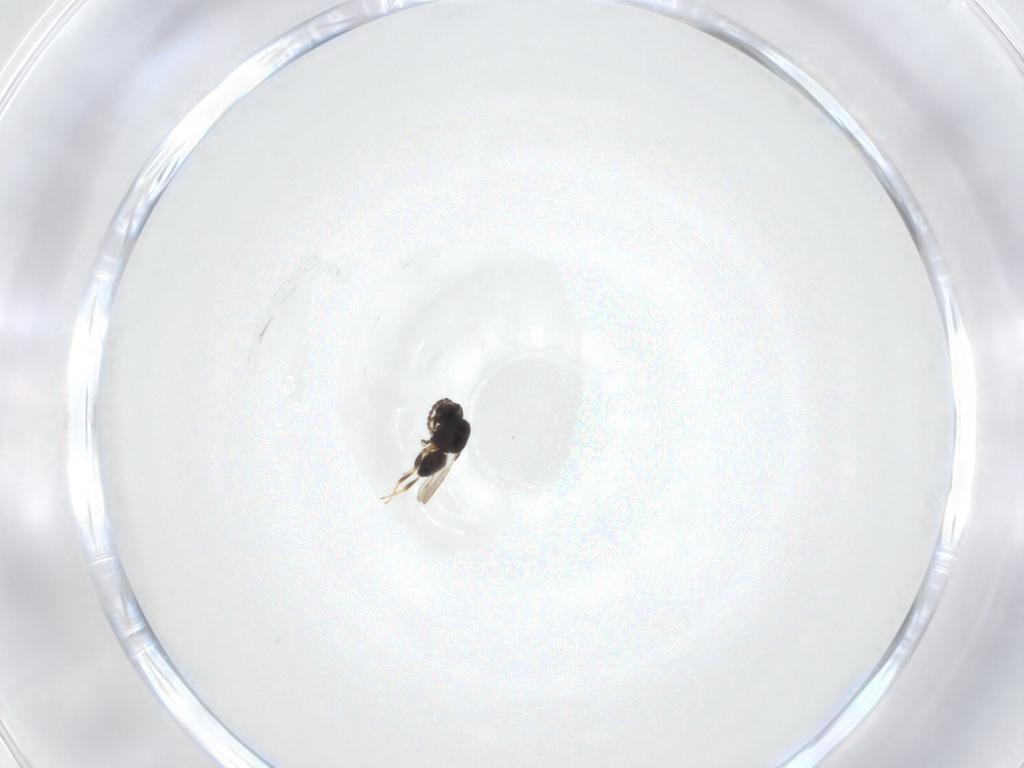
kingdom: Animalia
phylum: Arthropoda
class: Insecta
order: Hymenoptera
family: Ceraphronidae
